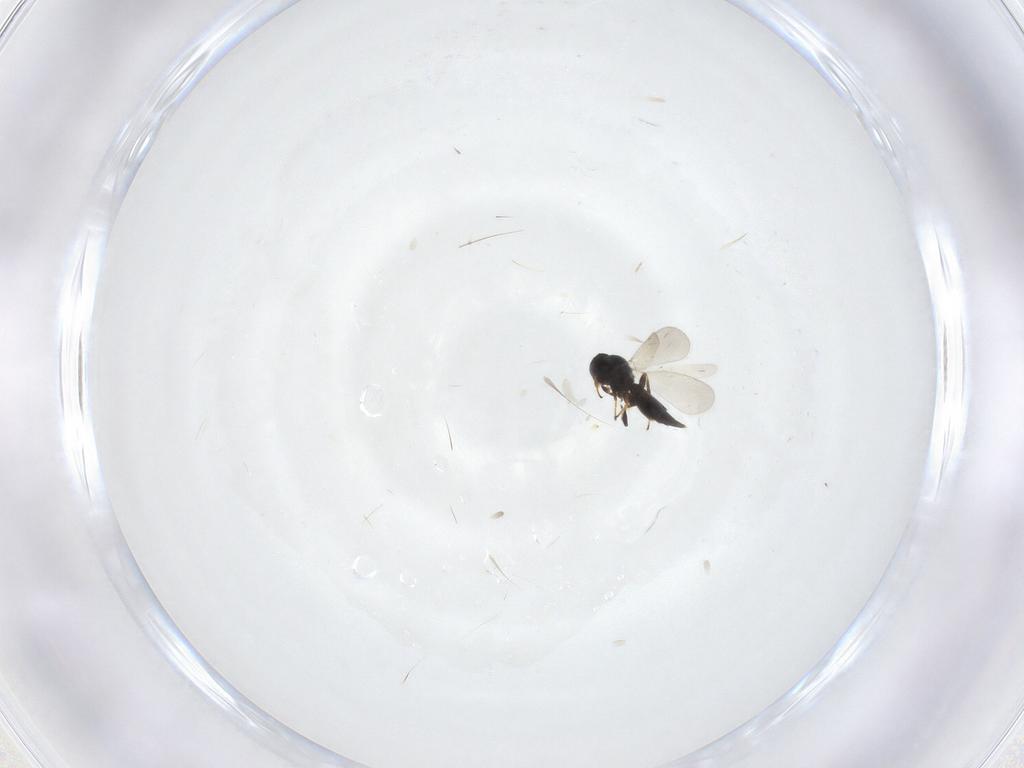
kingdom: Animalia
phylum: Arthropoda
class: Insecta
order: Hymenoptera
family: Platygastridae
